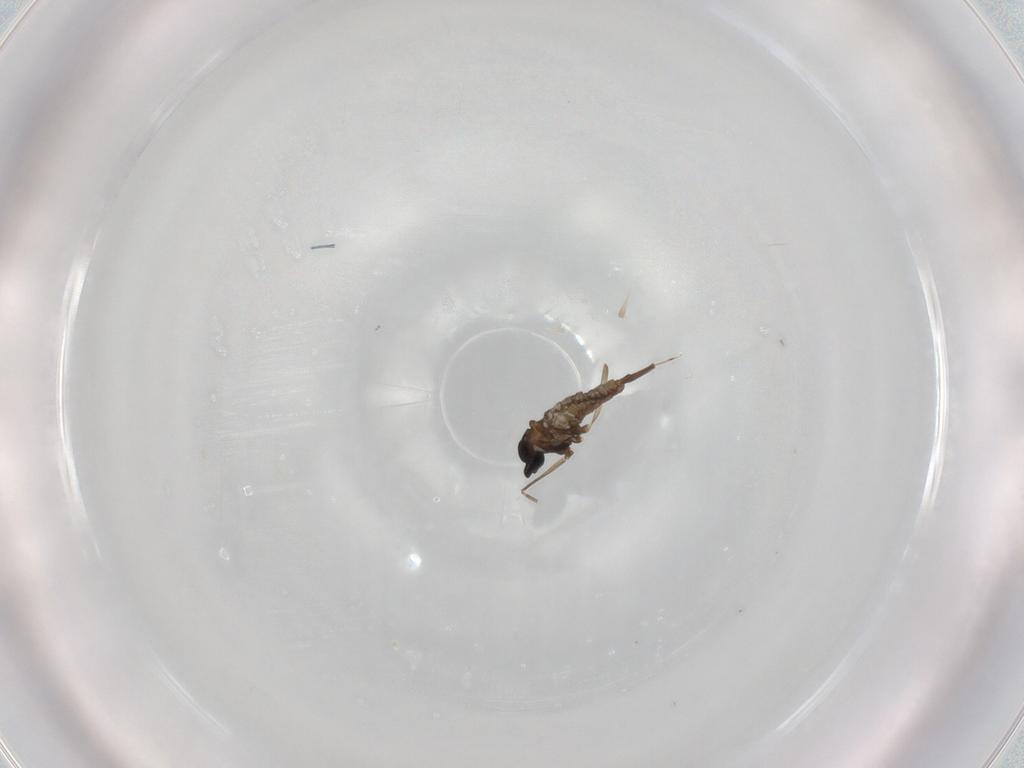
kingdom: Animalia
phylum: Arthropoda
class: Insecta
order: Diptera
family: Cecidomyiidae
